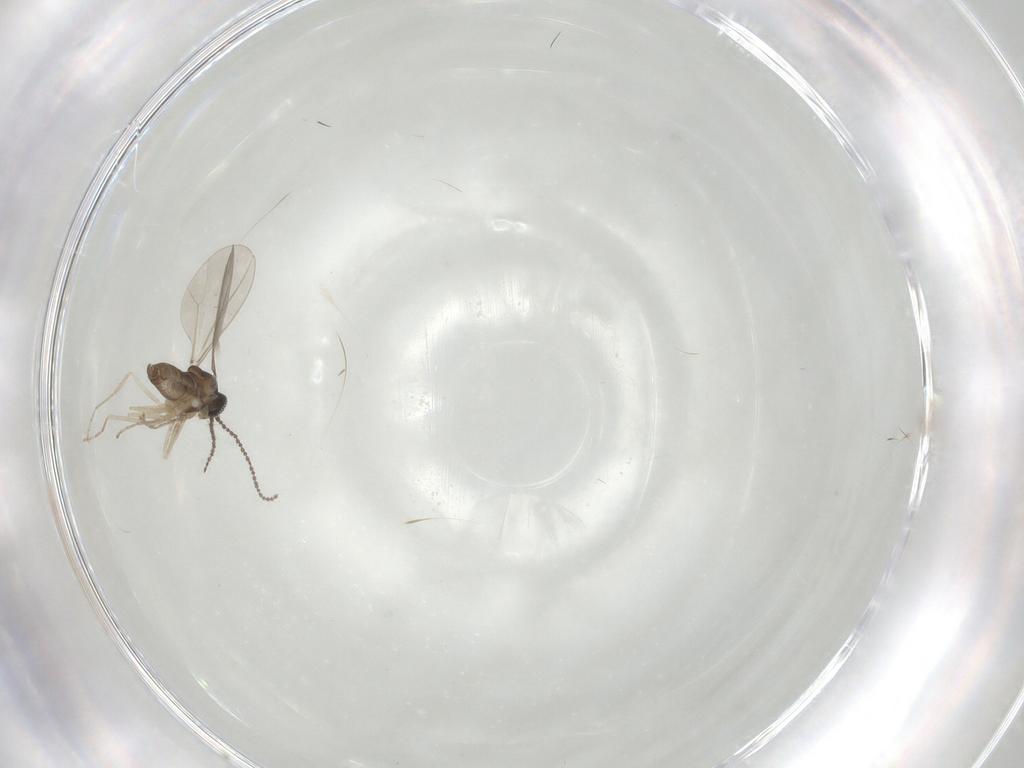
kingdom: Animalia
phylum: Arthropoda
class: Insecta
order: Diptera
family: Cecidomyiidae
